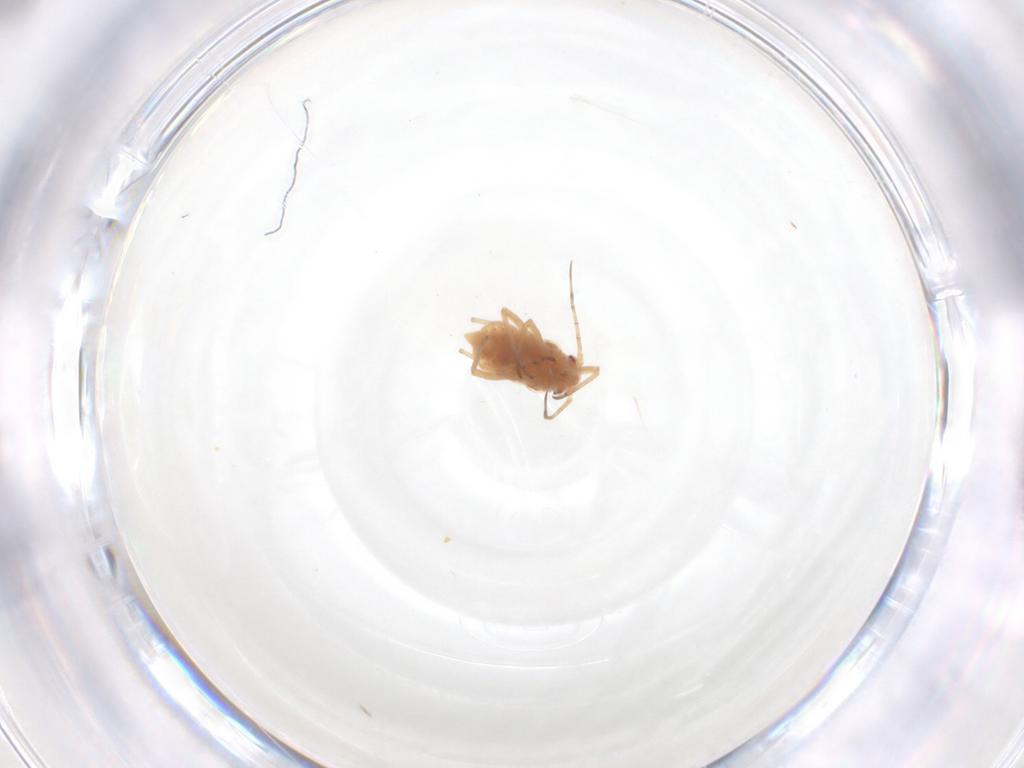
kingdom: Animalia
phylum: Arthropoda
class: Insecta
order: Hemiptera
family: Aphididae
